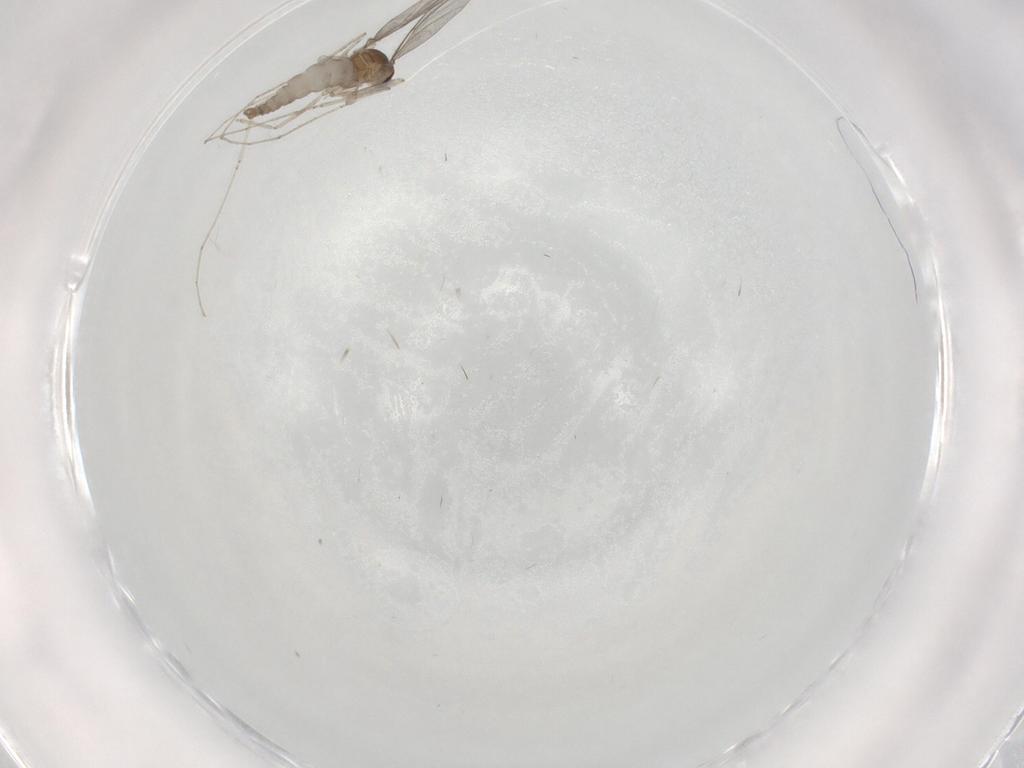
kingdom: Animalia
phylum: Arthropoda
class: Insecta
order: Diptera
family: Cecidomyiidae
